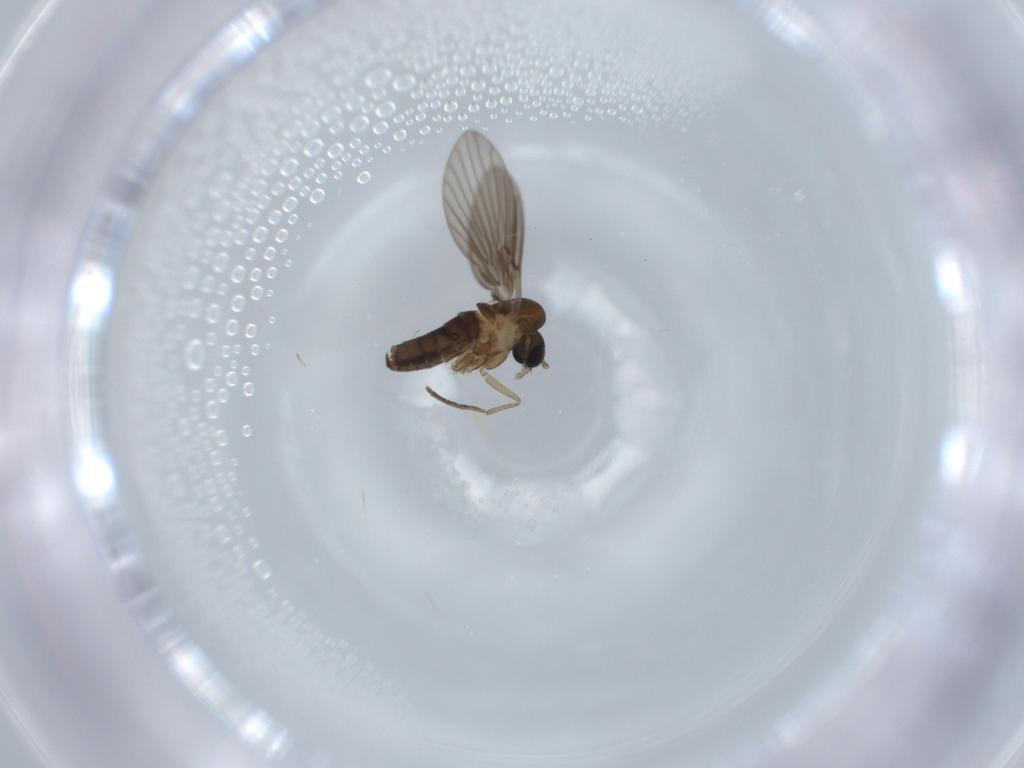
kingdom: Animalia
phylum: Arthropoda
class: Insecta
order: Diptera
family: Psychodidae
